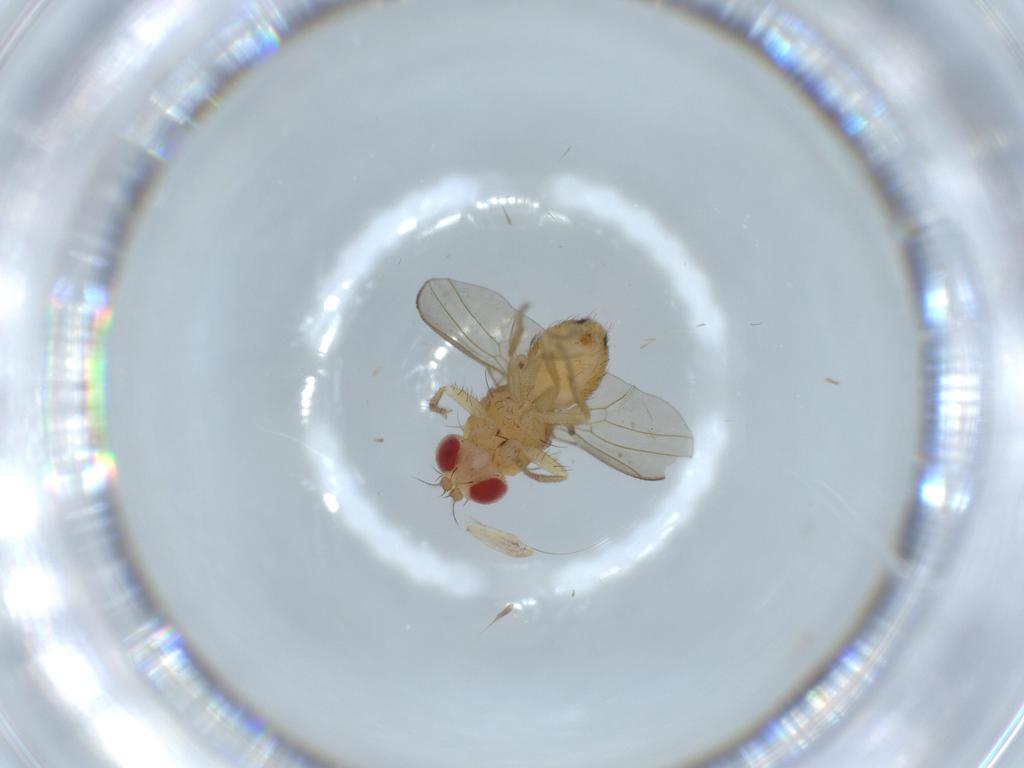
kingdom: Animalia
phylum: Arthropoda
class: Insecta
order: Diptera
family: Drosophilidae
